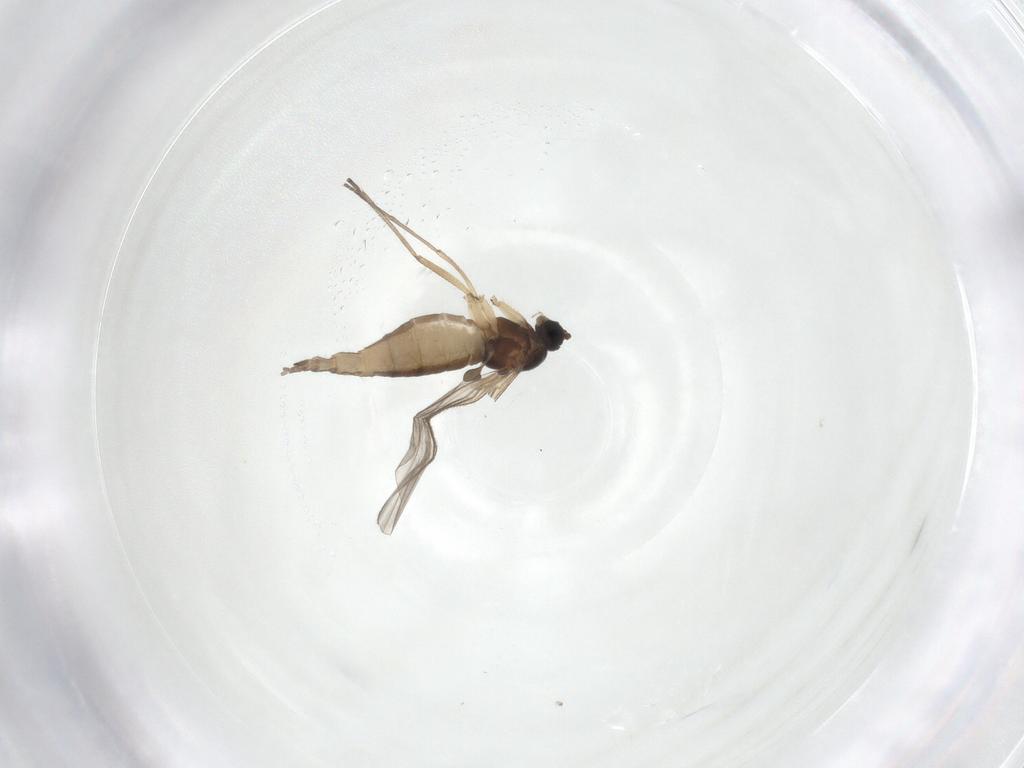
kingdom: Animalia
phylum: Arthropoda
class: Insecta
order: Diptera
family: Sciaridae
